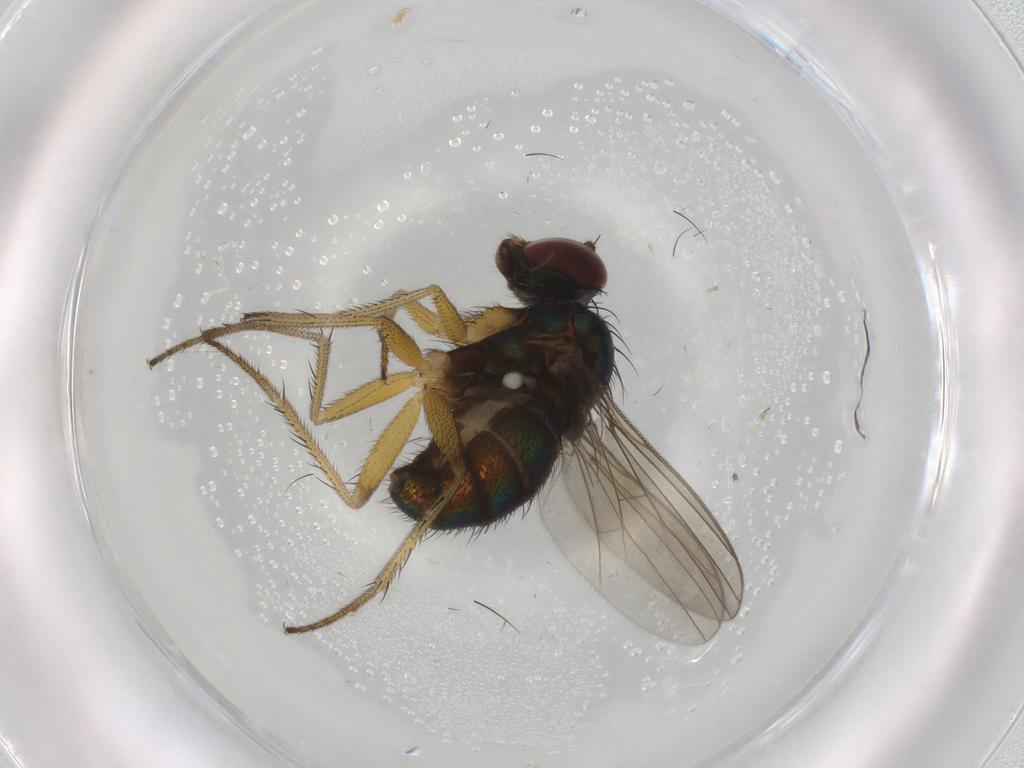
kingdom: Animalia
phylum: Arthropoda
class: Insecta
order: Diptera
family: Dolichopodidae
